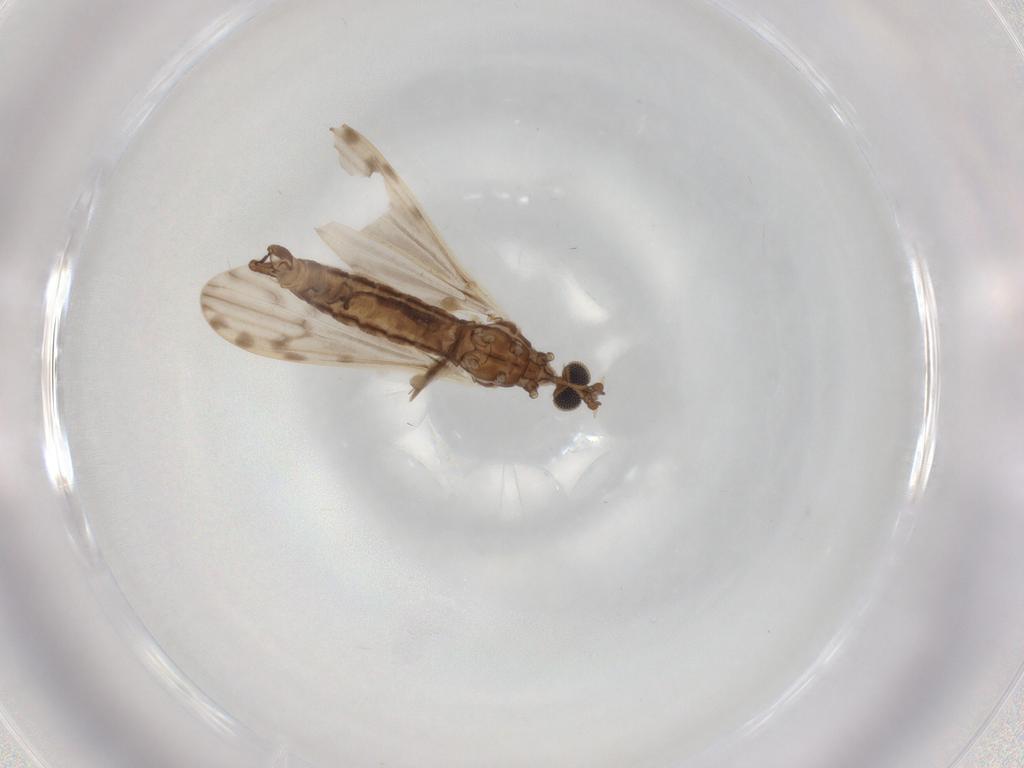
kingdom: Animalia
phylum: Arthropoda
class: Insecta
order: Diptera
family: Limoniidae
